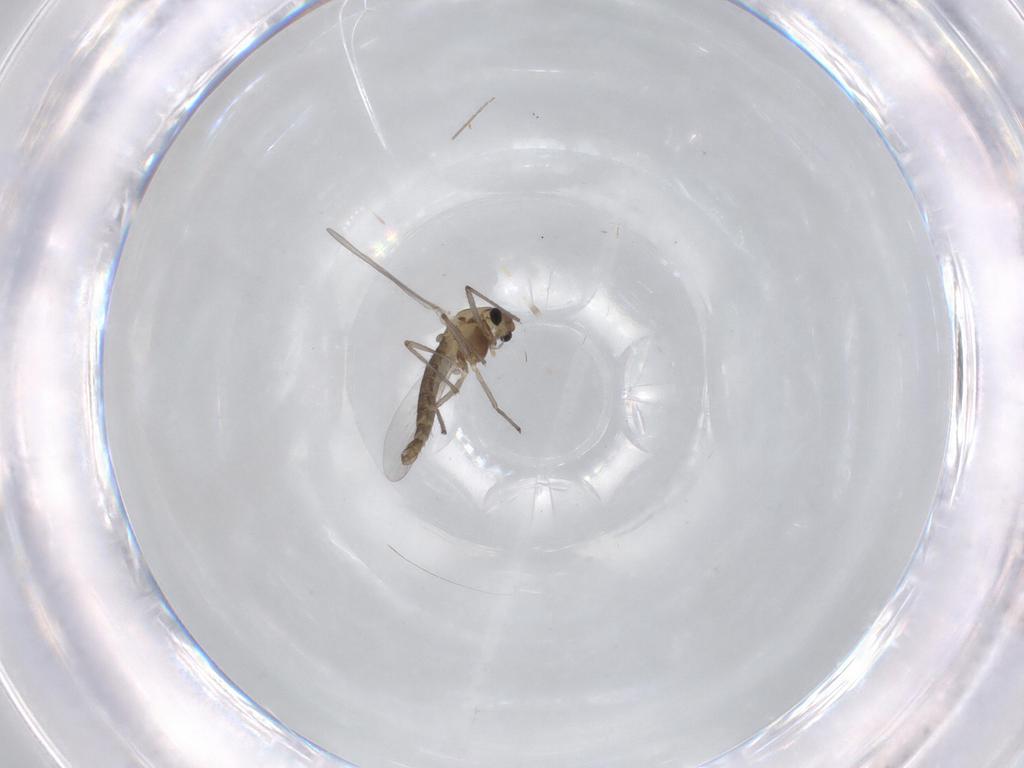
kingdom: Animalia
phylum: Arthropoda
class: Insecta
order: Diptera
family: Chironomidae
